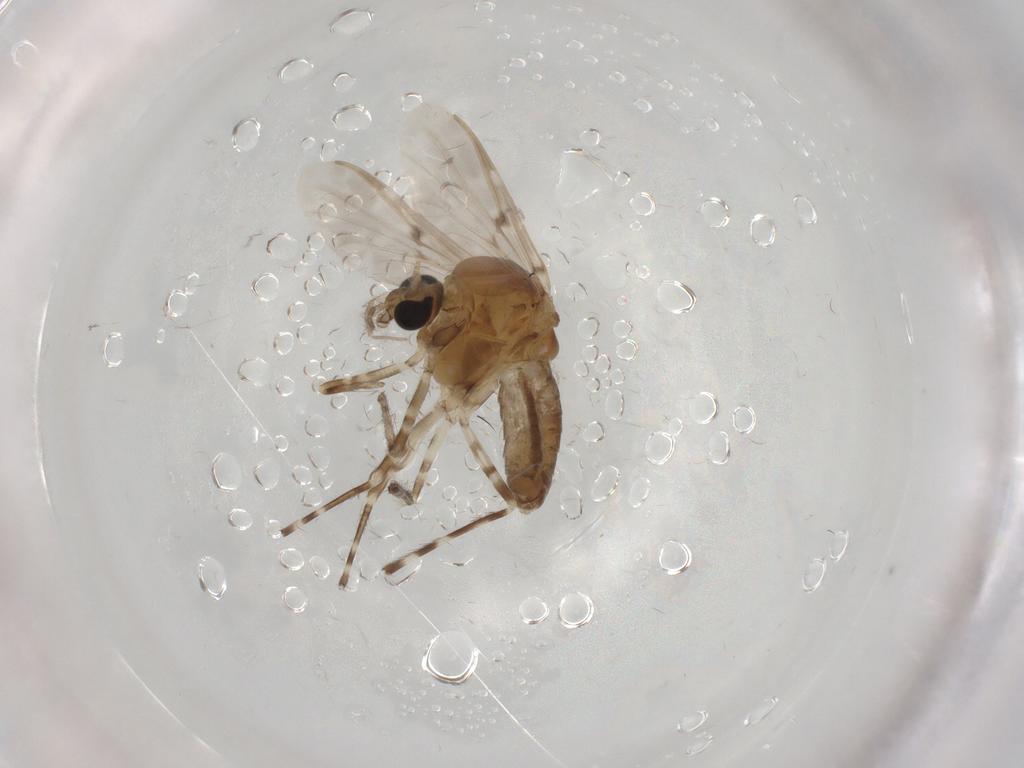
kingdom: Animalia
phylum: Arthropoda
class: Insecta
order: Diptera
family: Chironomidae
